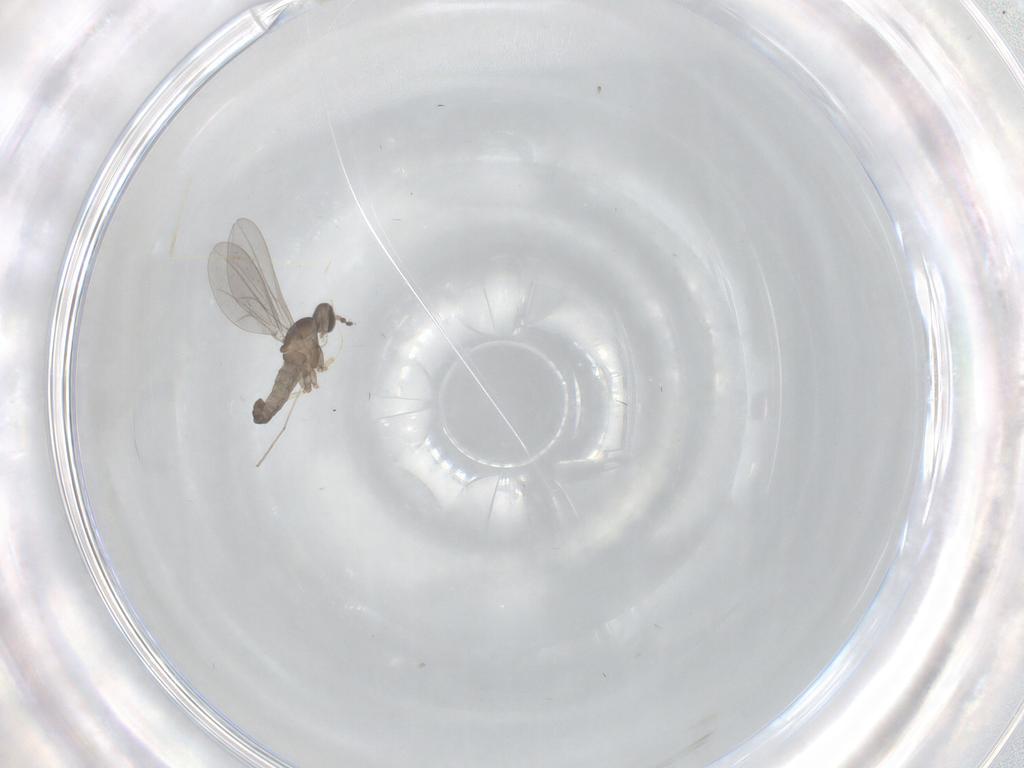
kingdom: Animalia
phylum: Arthropoda
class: Insecta
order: Diptera
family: Cecidomyiidae
